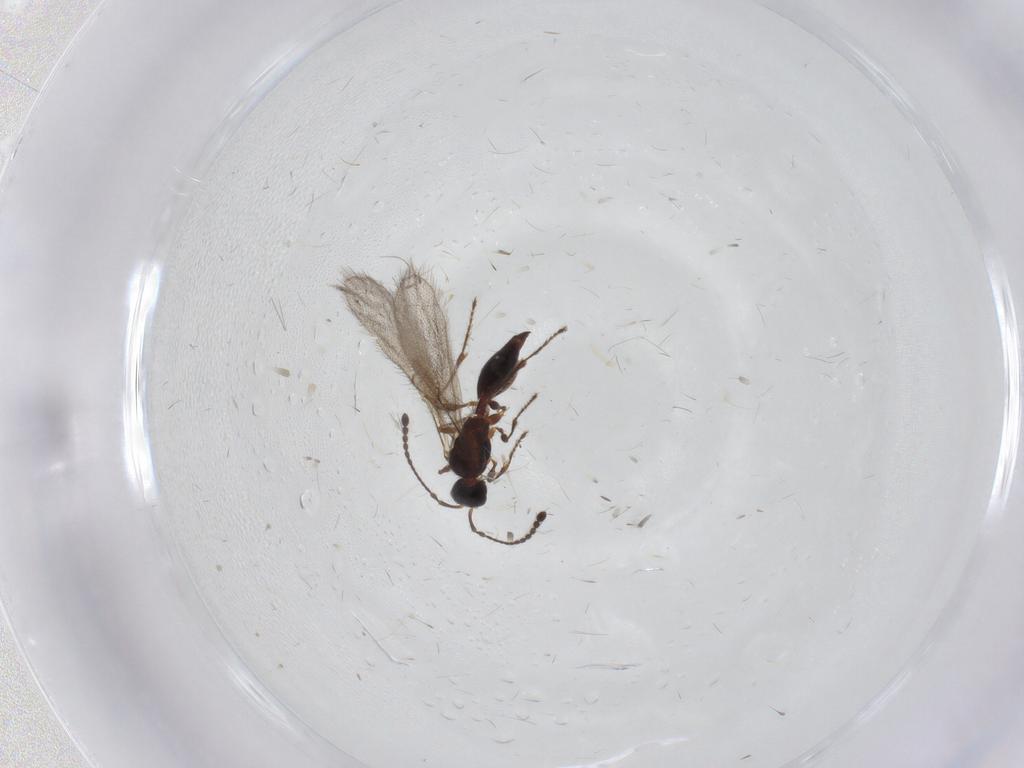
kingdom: Animalia
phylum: Arthropoda
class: Insecta
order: Hymenoptera
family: Diapriidae
